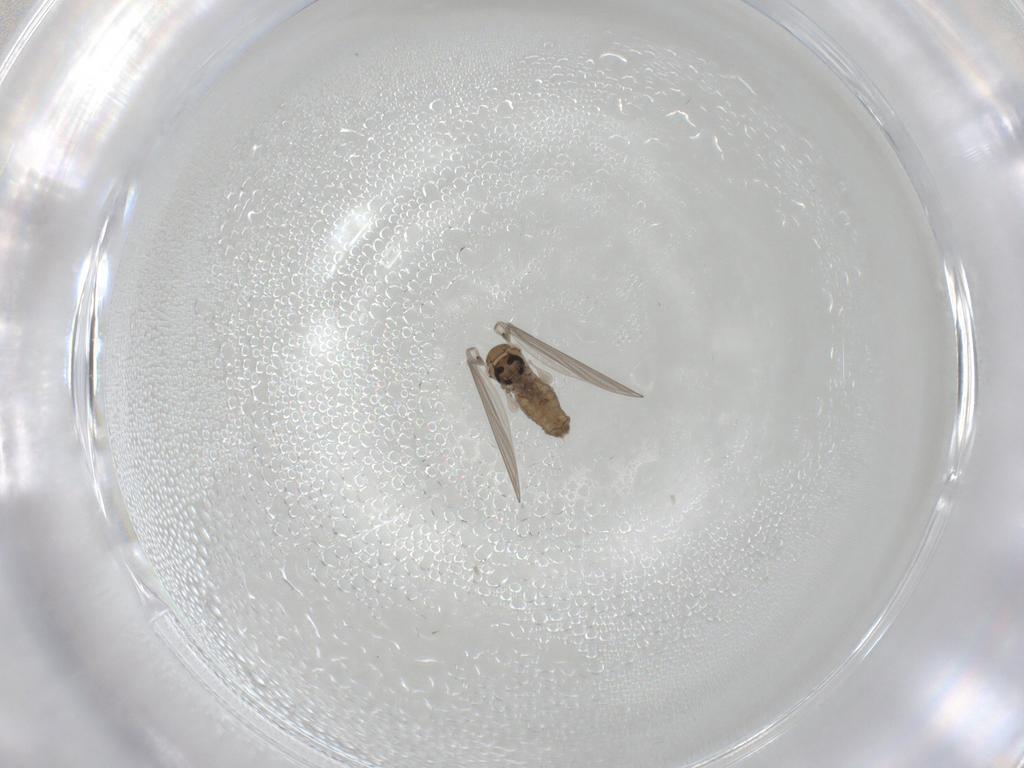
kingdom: Animalia
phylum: Arthropoda
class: Insecta
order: Diptera
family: Psychodidae
